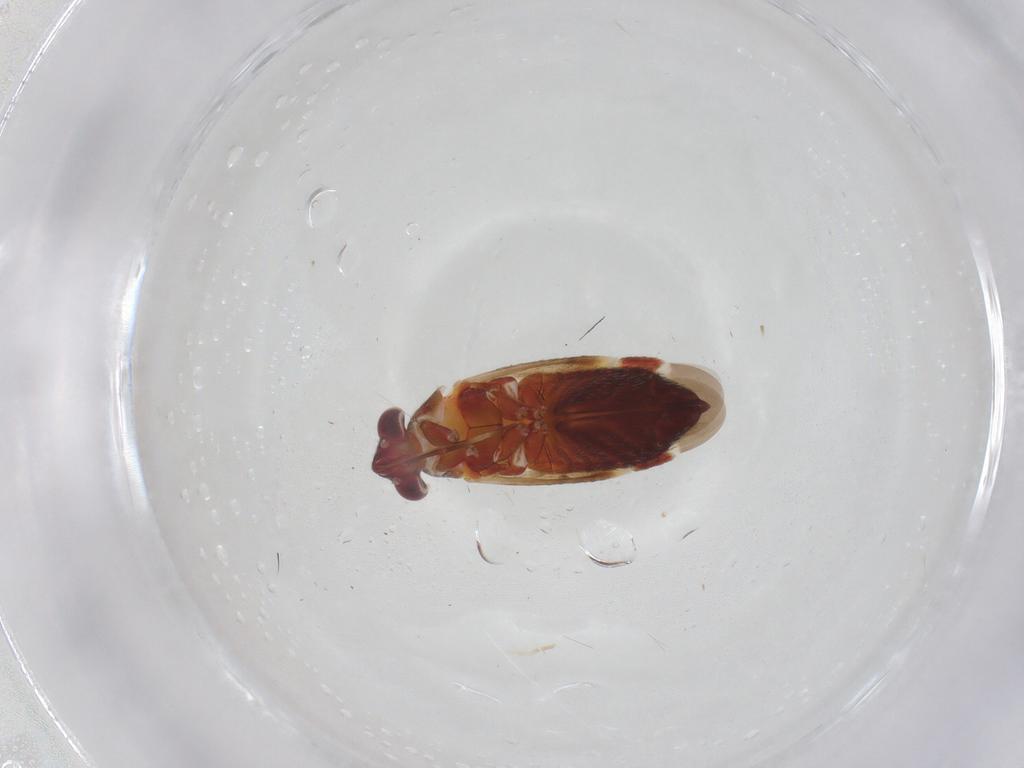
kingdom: Animalia
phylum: Arthropoda
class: Insecta
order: Hemiptera
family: Miridae
